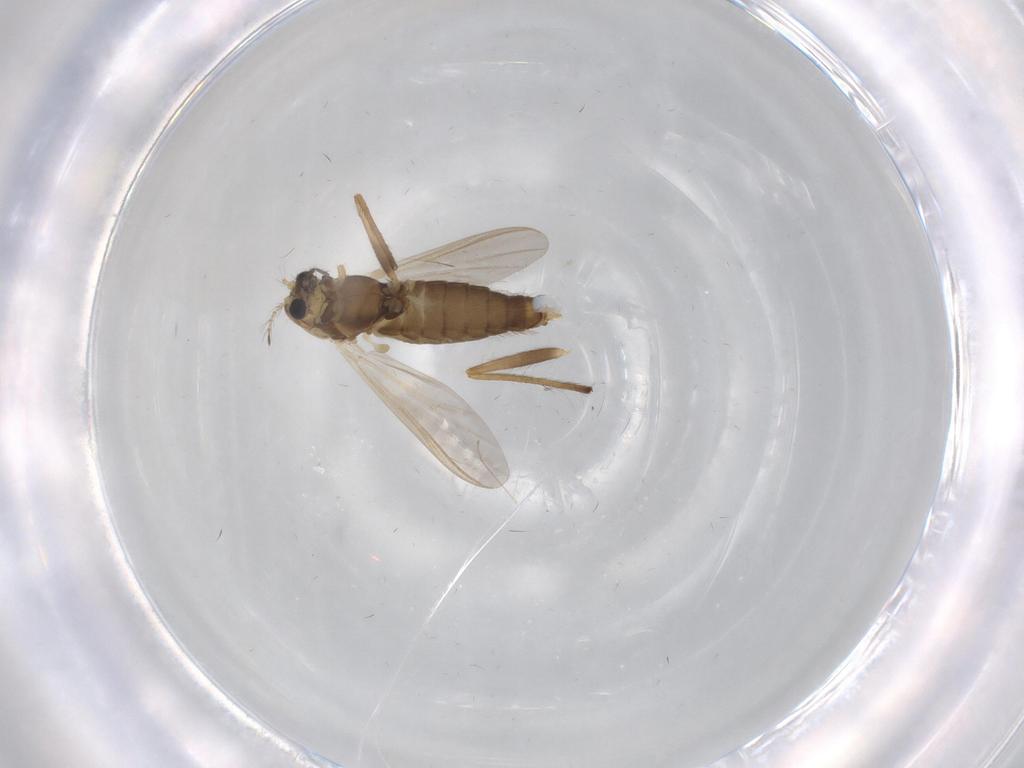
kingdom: Animalia
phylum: Arthropoda
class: Insecta
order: Diptera
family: Chironomidae
